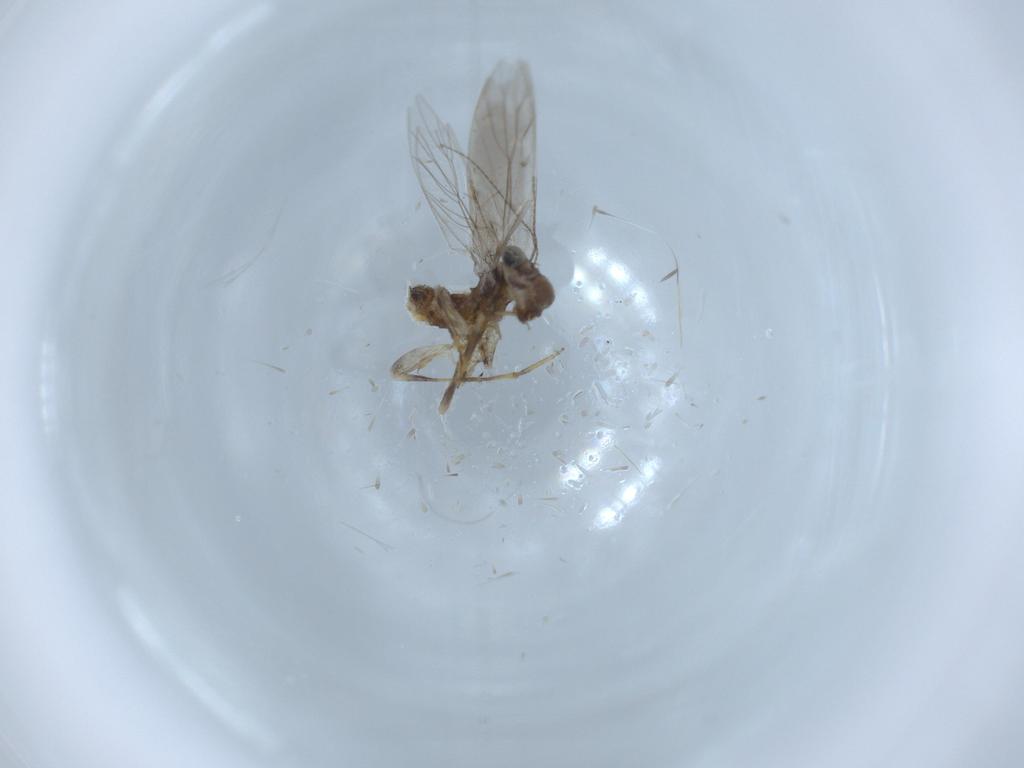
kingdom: Animalia
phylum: Arthropoda
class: Insecta
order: Psocodea
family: Lepidopsocidae
